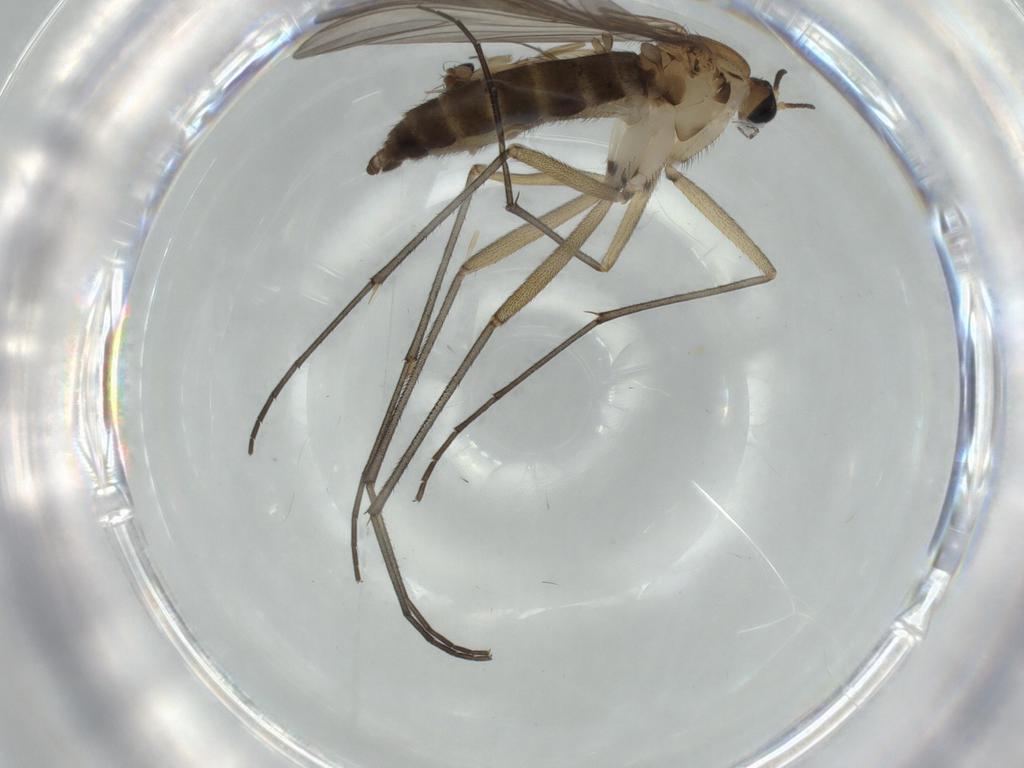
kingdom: Animalia
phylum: Arthropoda
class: Insecta
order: Diptera
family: Phoridae
